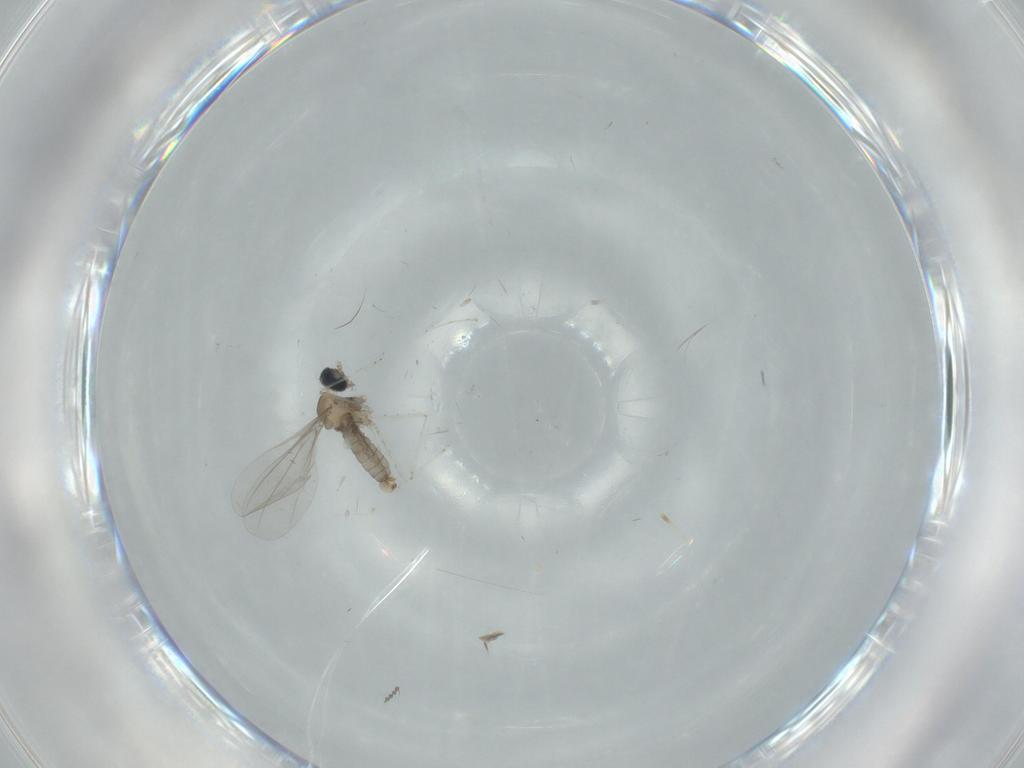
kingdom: Animalia
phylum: Arthropoda
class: Insecta
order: Diptera
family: Cecidomyiidae
